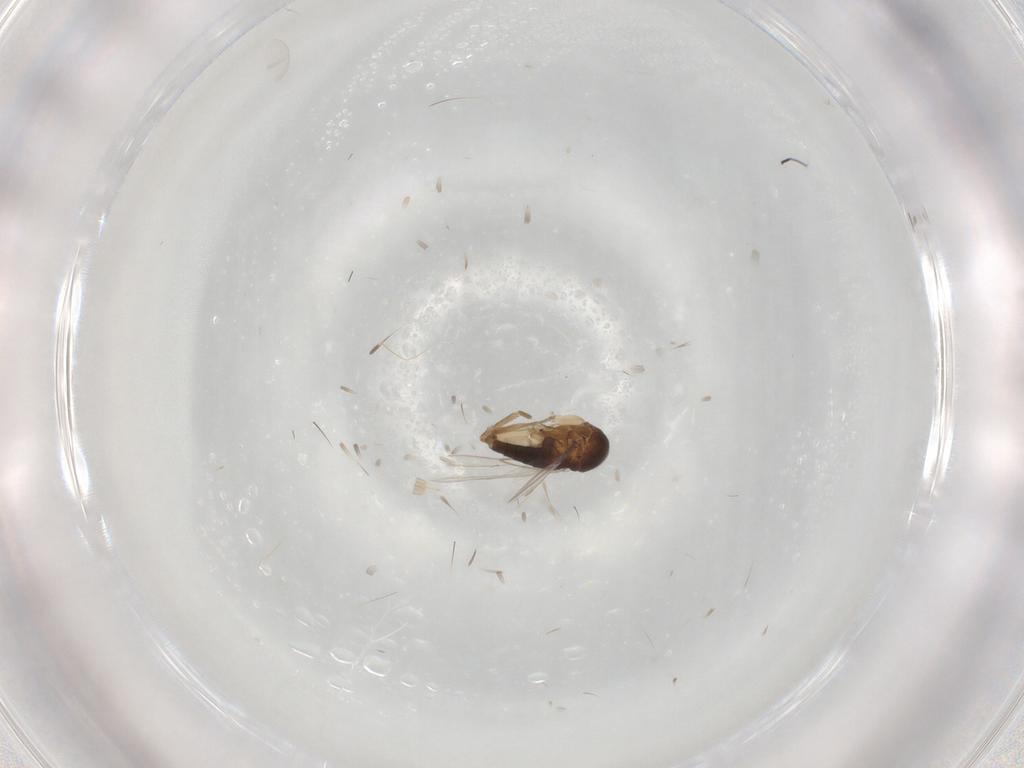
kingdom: Animalia
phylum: Arthropoda
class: Insecta
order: Diptera
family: Phoridae
